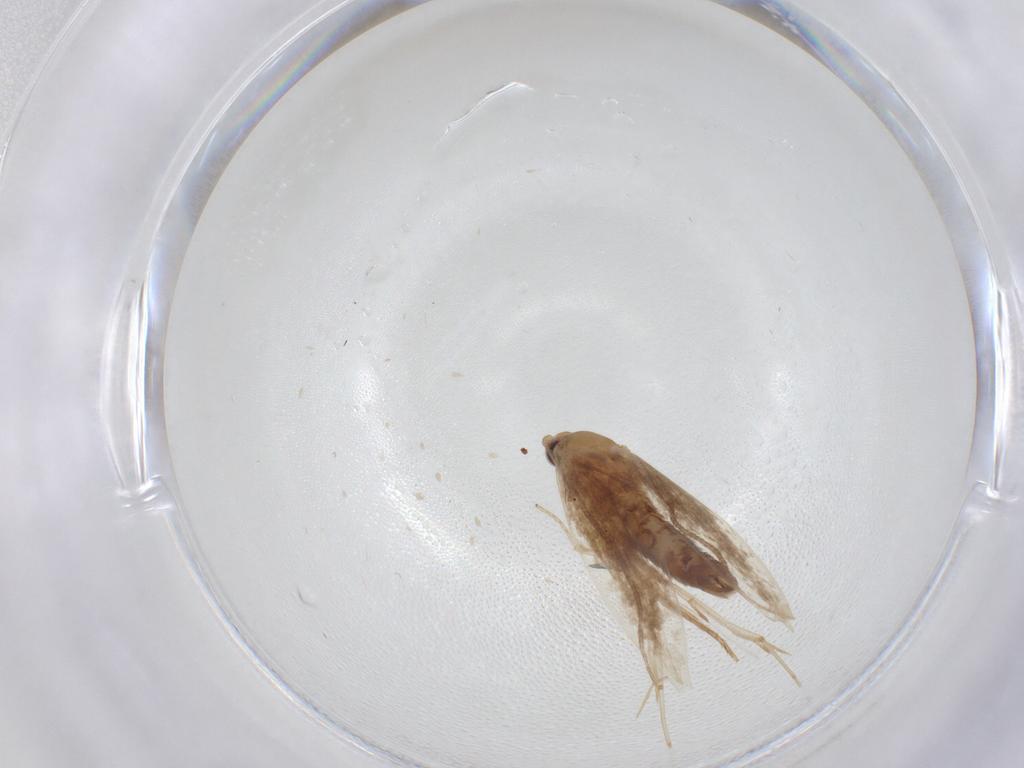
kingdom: Animalia
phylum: Arthropoda
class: Insecta
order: Lepidoptera
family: Tineidae
